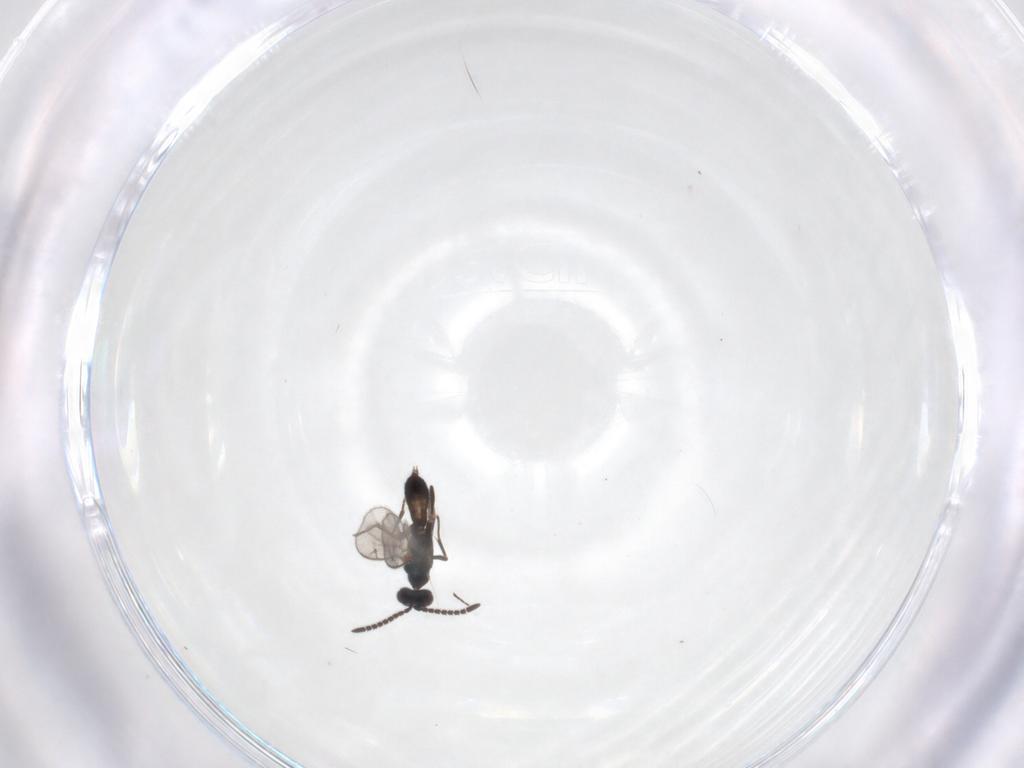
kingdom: Animalia
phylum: Arthropoda
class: Insecta
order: Hymenoptera
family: Eupelmidae
